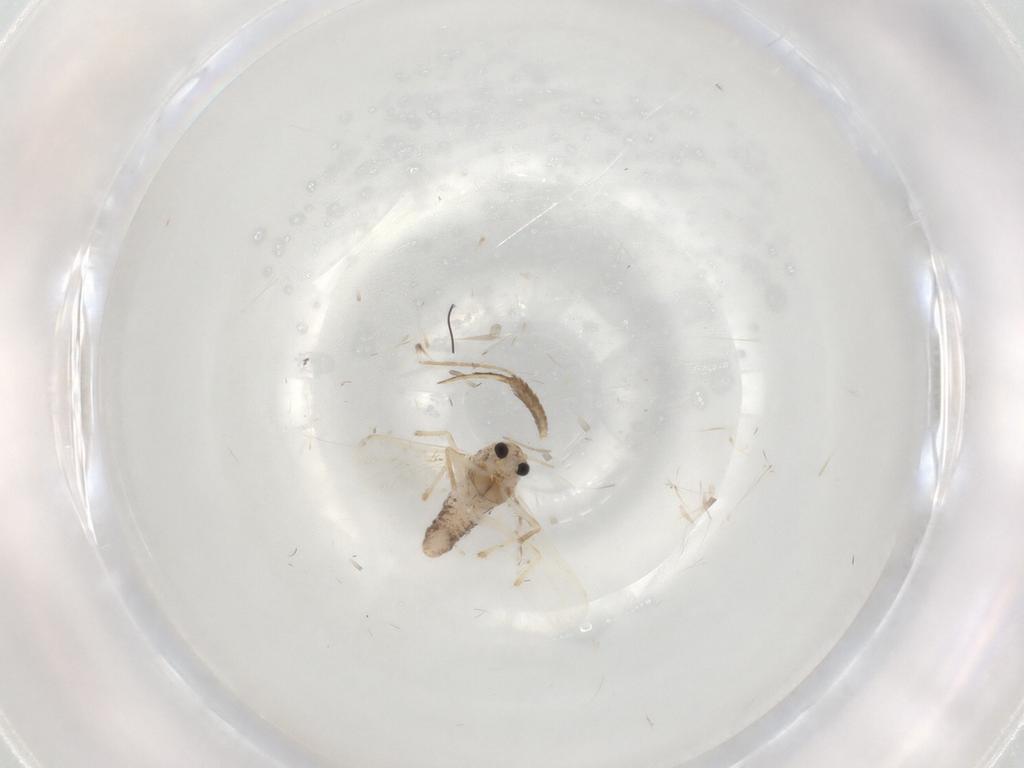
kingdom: Animalia
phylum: Arthropoda
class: Insecta
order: Diptera
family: Chironomidae
